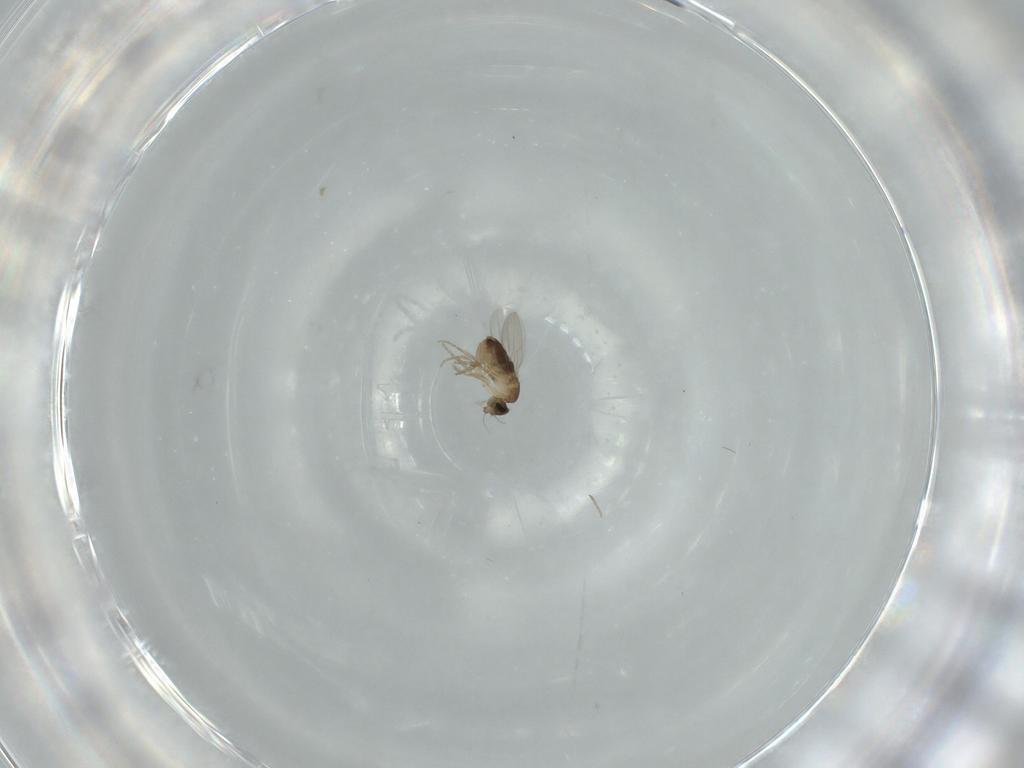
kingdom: Animalia
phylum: Arthropoda
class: Insecta
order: Diptera
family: Phoridae
